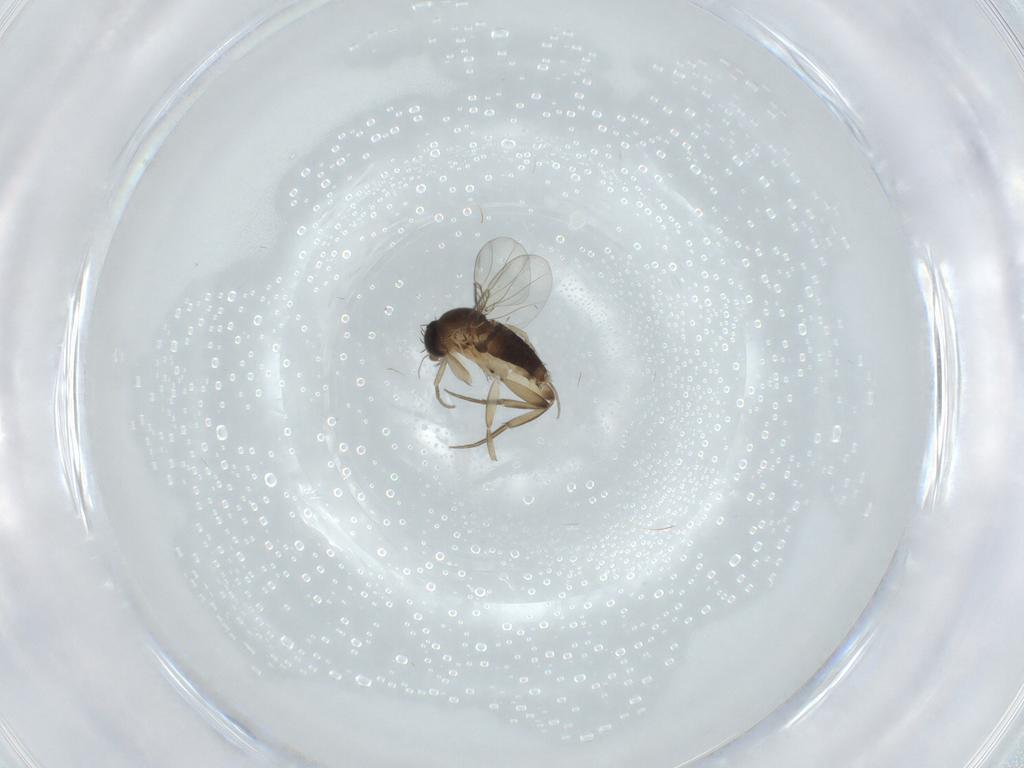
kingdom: Animalia
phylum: Arthropoda
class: Insecta
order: Diptera
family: Phoridae
